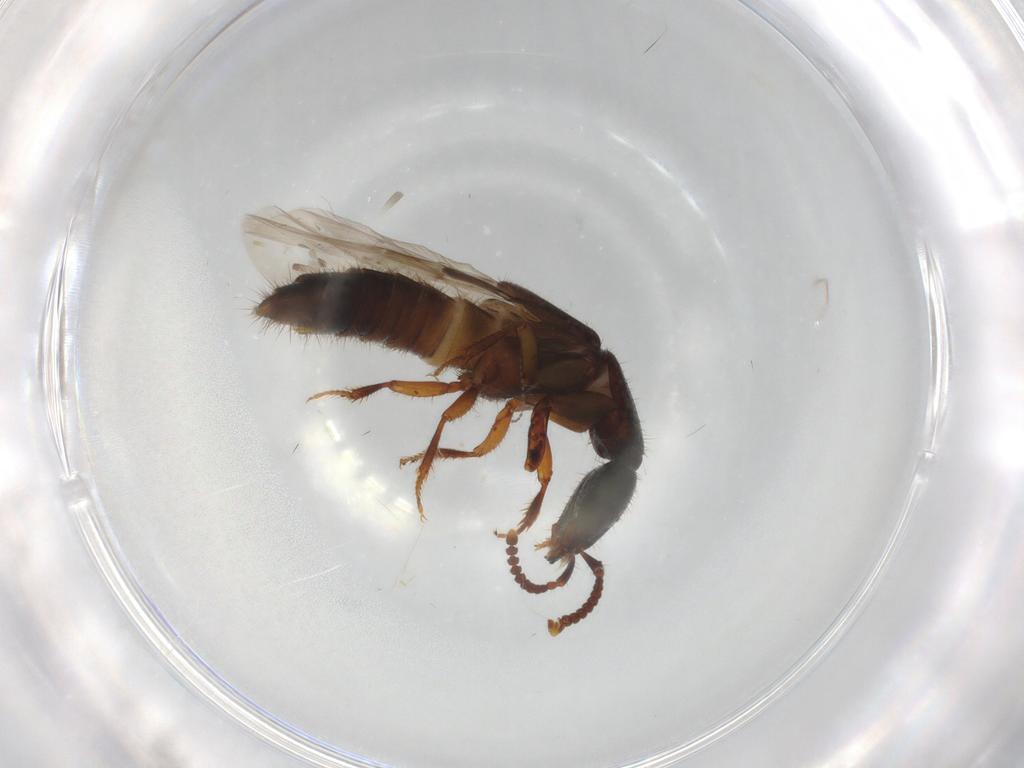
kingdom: Animalia
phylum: Arthropoda
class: Insecta
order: Coleoptera
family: Staphylinidae
